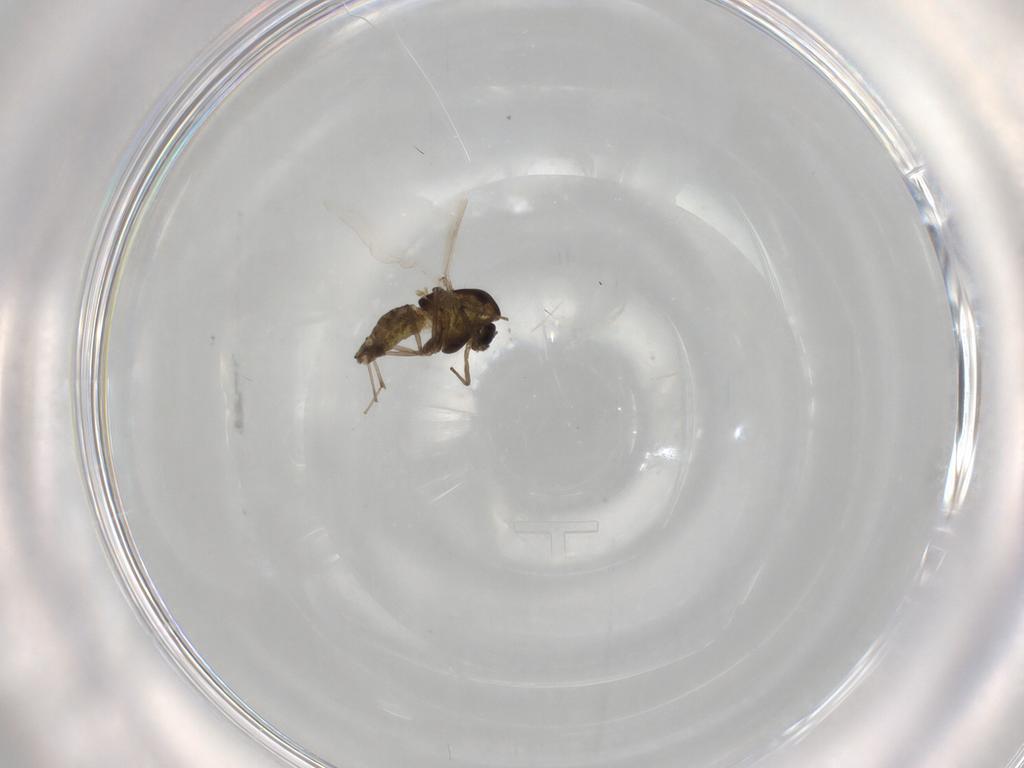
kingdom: Animalia
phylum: Arthropoda
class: Insecta
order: Diptera
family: Chironomidae
